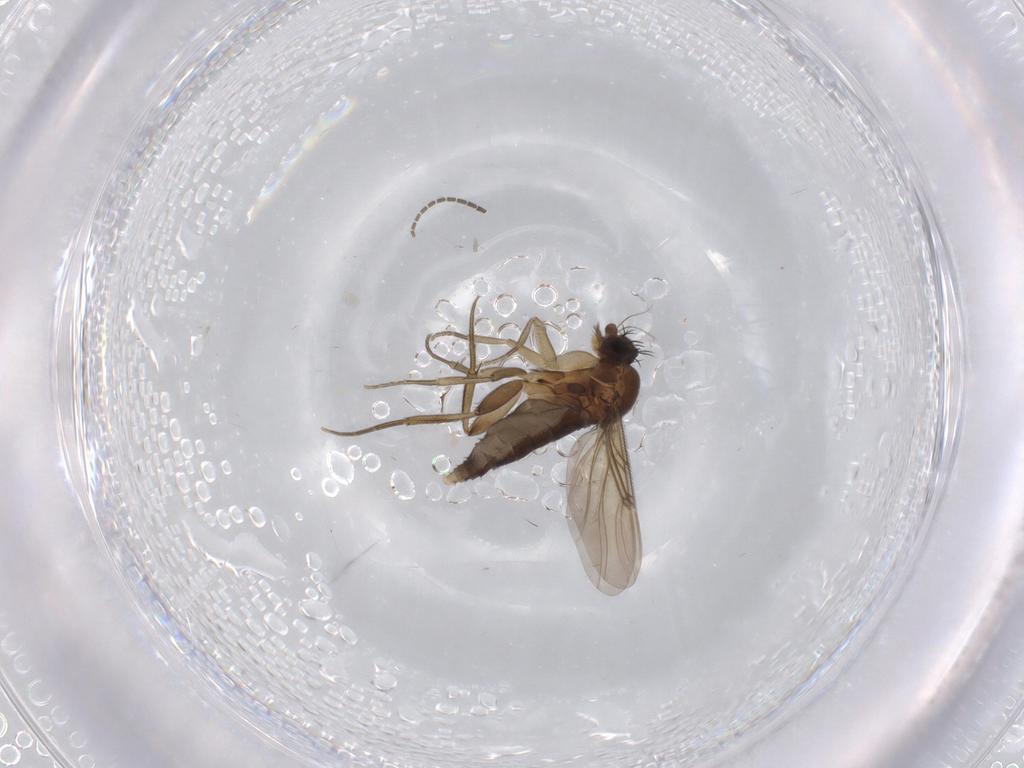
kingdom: Animalia
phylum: Arthropoda
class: Insecta
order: Diptera
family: Phoridae
